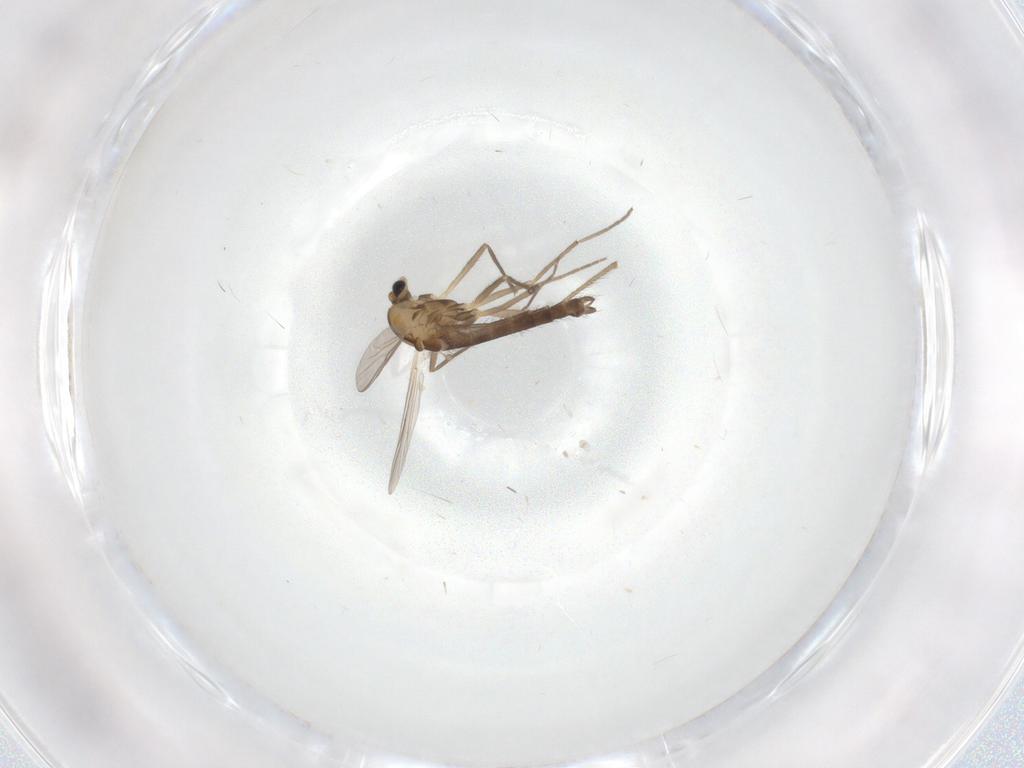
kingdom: Animalia
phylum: Arthropoda
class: Insecta
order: Diptera
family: Chironomidae
